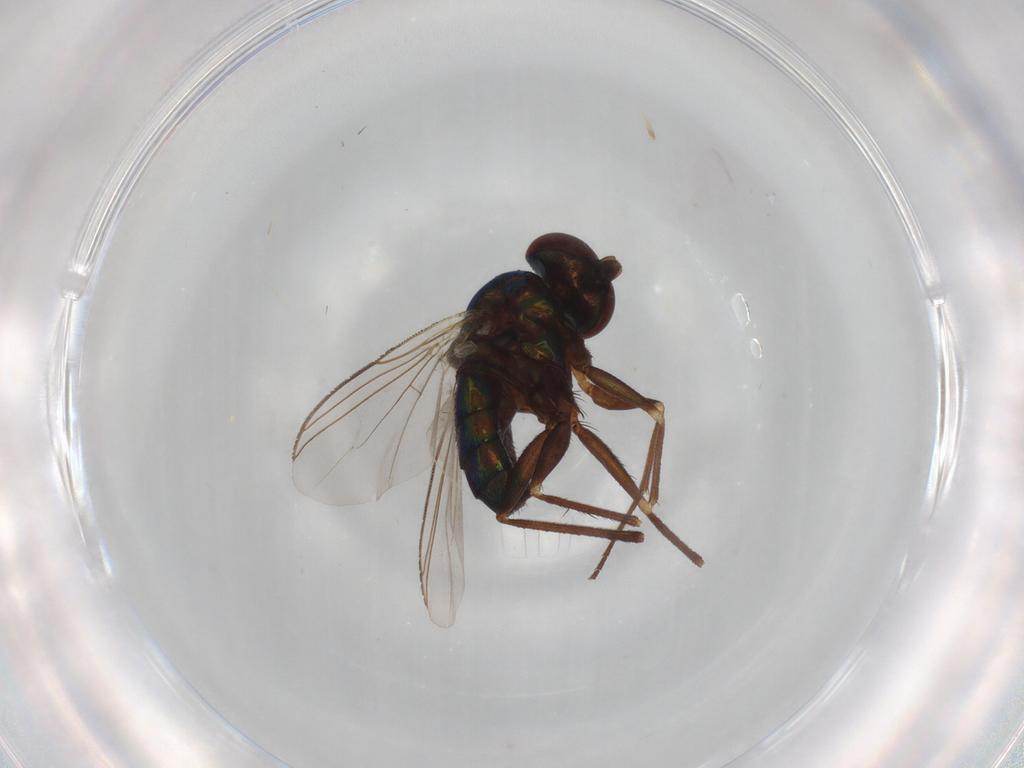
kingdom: Animalia
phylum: Arthropoda
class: Insecta
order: Diptera
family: Dolichopodidae
